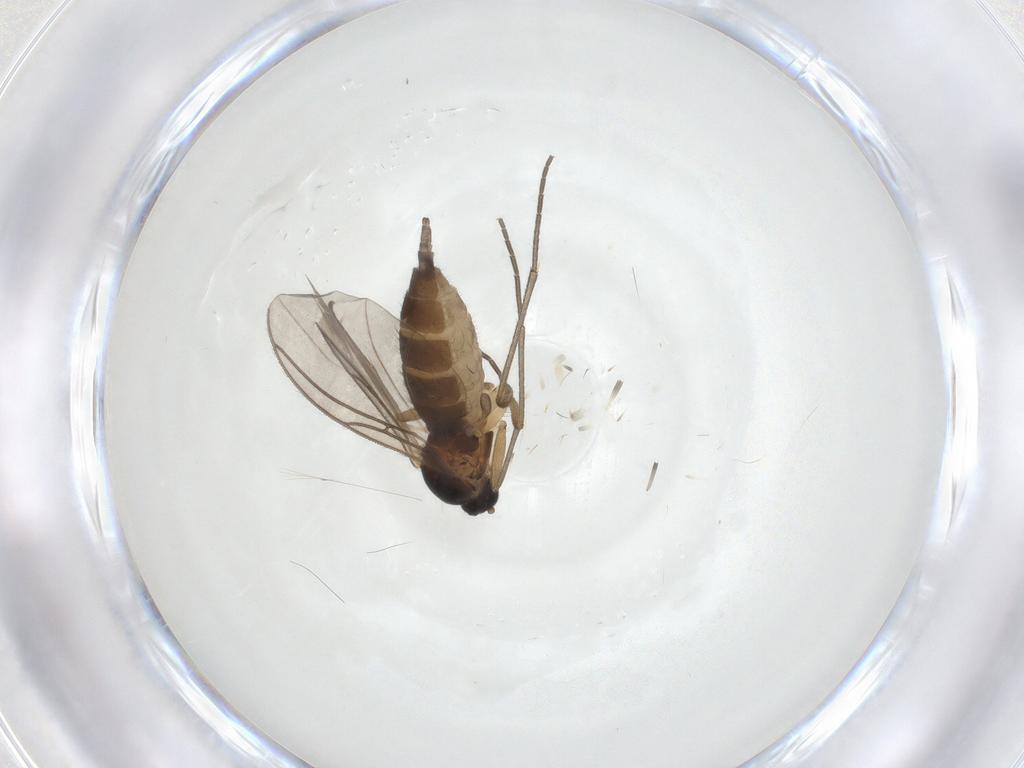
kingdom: Animalia
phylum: Arthropoda
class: Insecta
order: Diptera
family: Sciaridae
